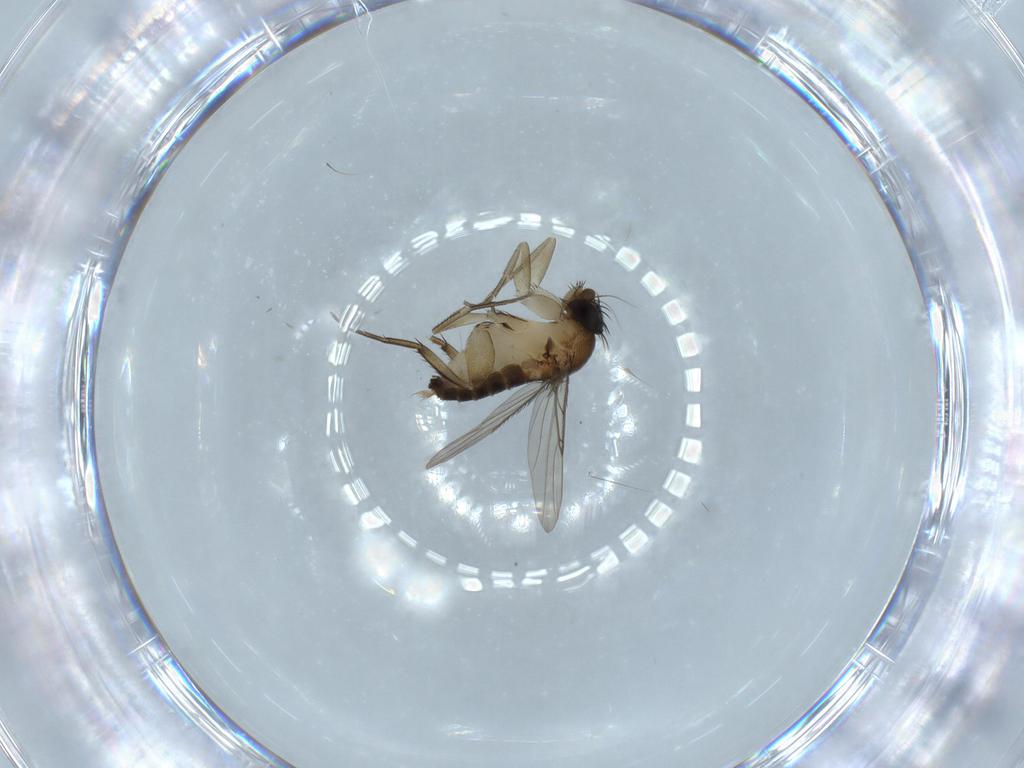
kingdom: Animalia
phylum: Arthropoda
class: Insecta
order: Diptera
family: Phoridae
